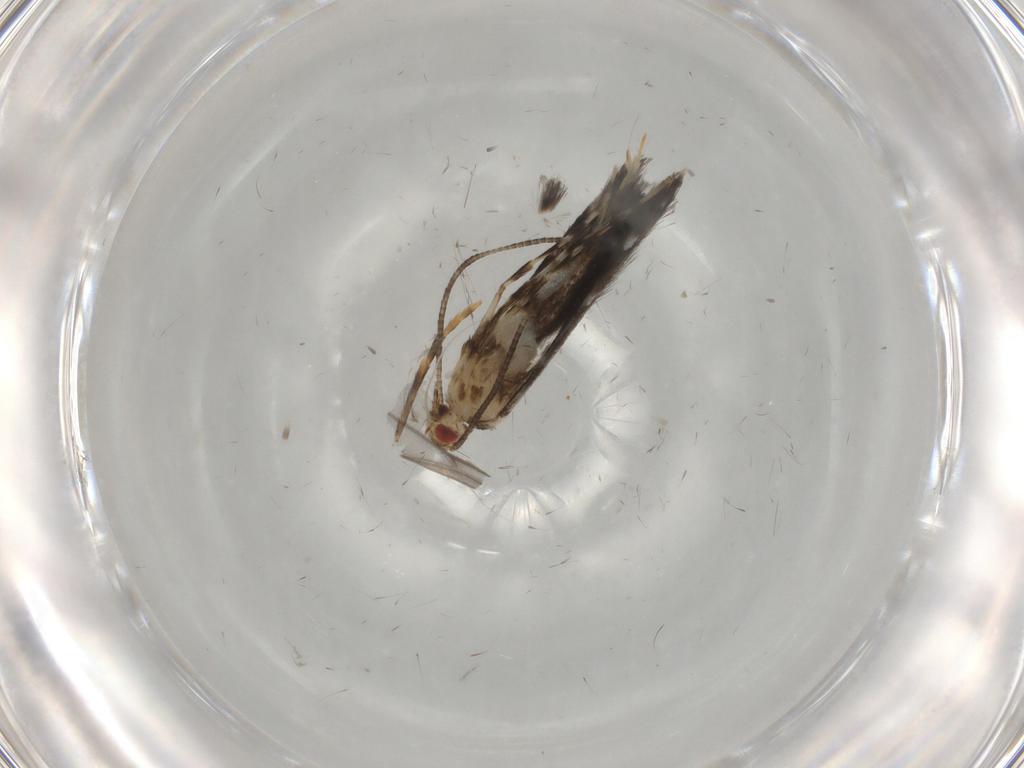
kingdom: Animalia
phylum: Arthropoda
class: Insecta
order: Lepidoptera
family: Gracillariidae
